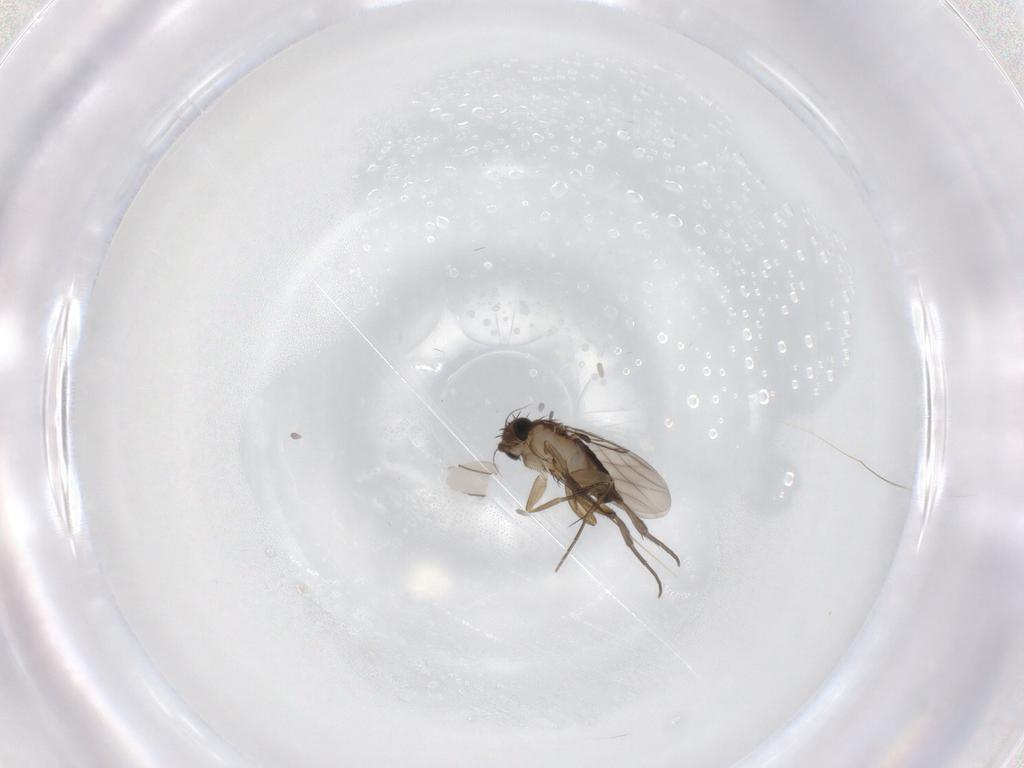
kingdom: Animalia
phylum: Arthropoda
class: Insecta
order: Diptera
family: Phoridae
